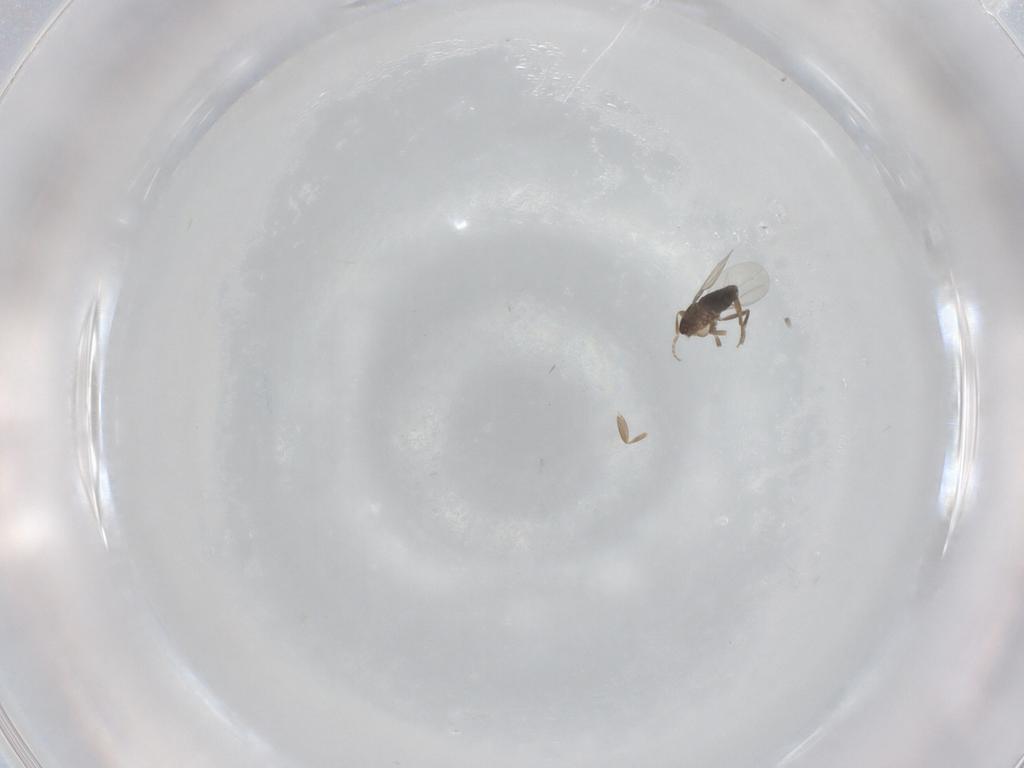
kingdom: Animalia
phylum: Arthropoda
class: Insecta
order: Diptera
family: Phoridae
